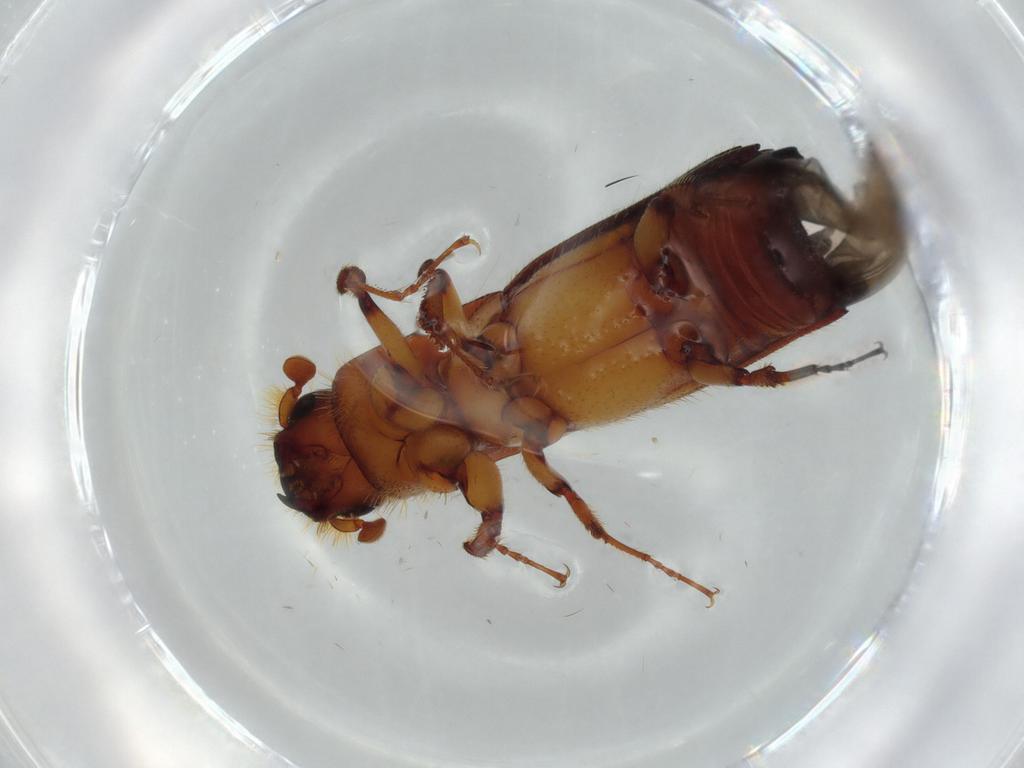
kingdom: Animalia
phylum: Arthropoda
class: Insecta
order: Coleoptera
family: Curculionidae
